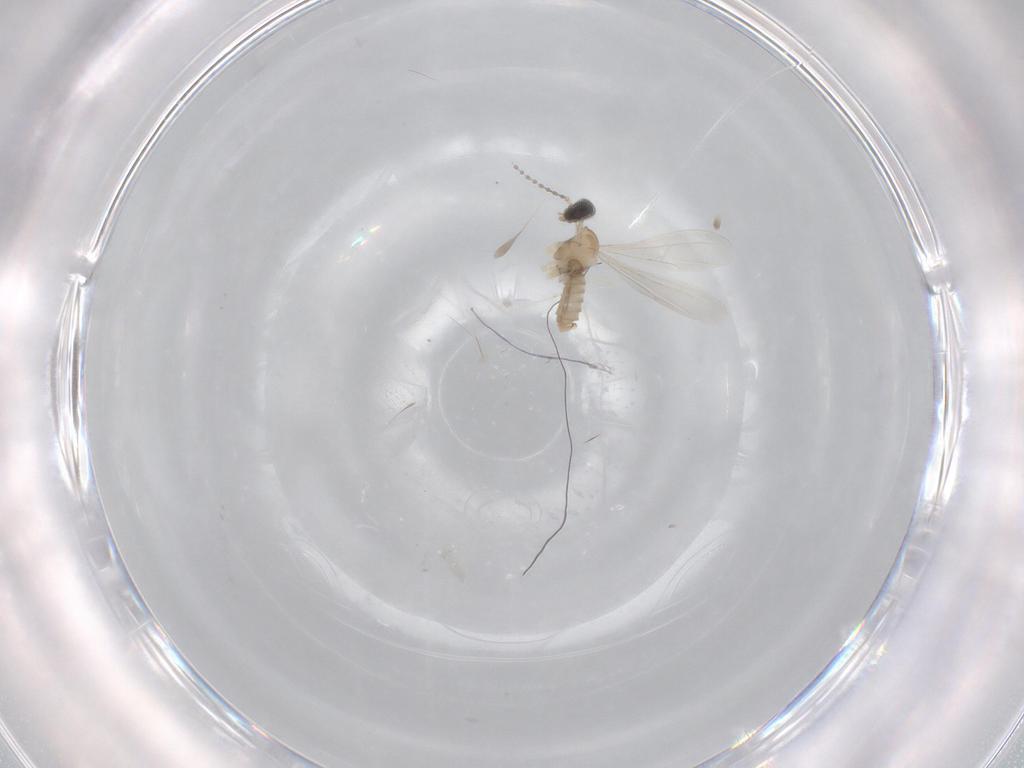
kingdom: Animalia
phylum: Arthropoda
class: Insecta
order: Diptera
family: Cecidomyiidae
